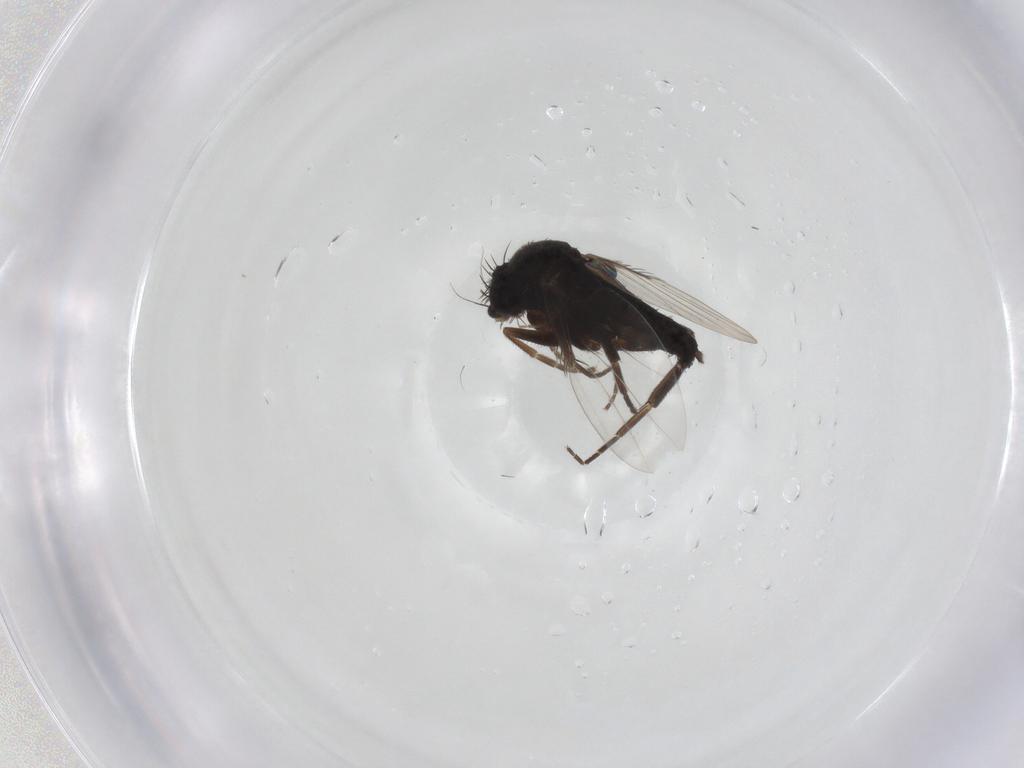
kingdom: Animalia
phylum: Arthropoda
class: Insecta
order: Diptera
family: Phoridae
